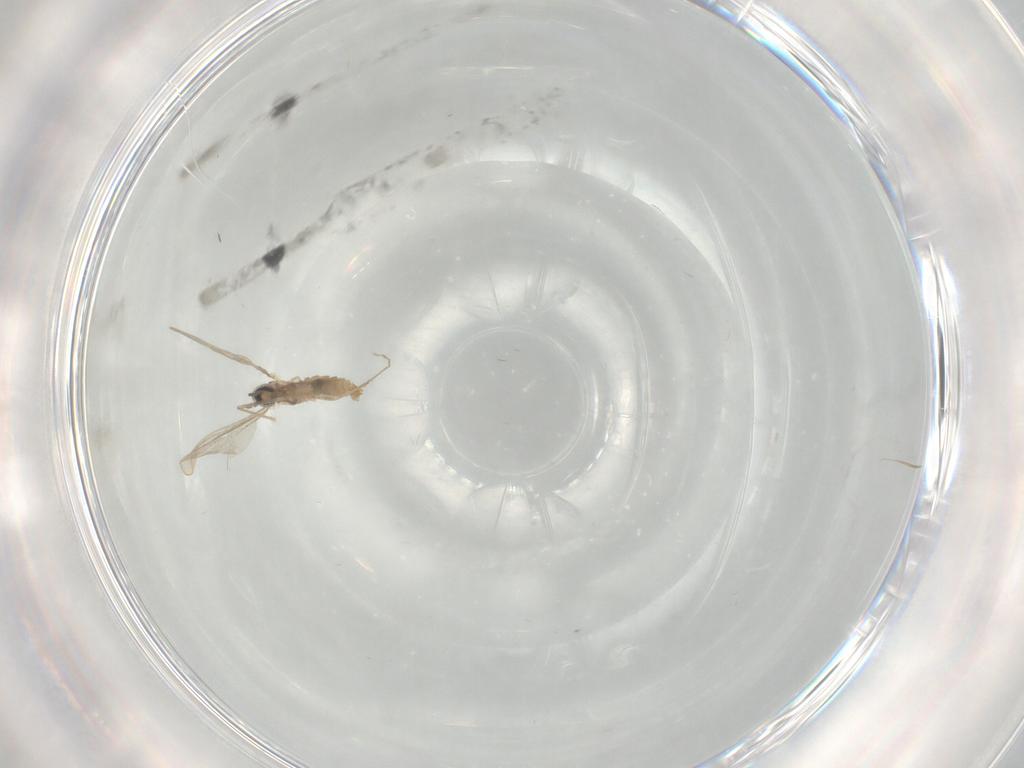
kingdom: Animalia
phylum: Arthropoda
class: Insecta
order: Diptera
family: Cecidomyiidae
